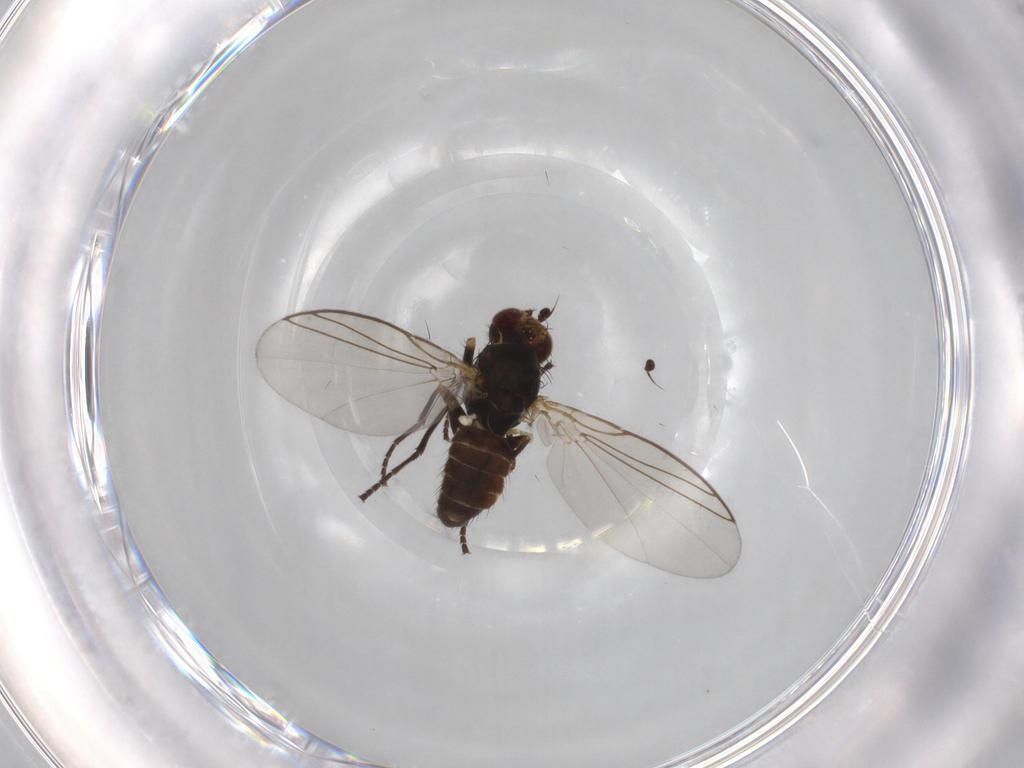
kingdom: Animalia
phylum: Arthropoda
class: Insecta
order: Diptera
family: Agromyzidae
